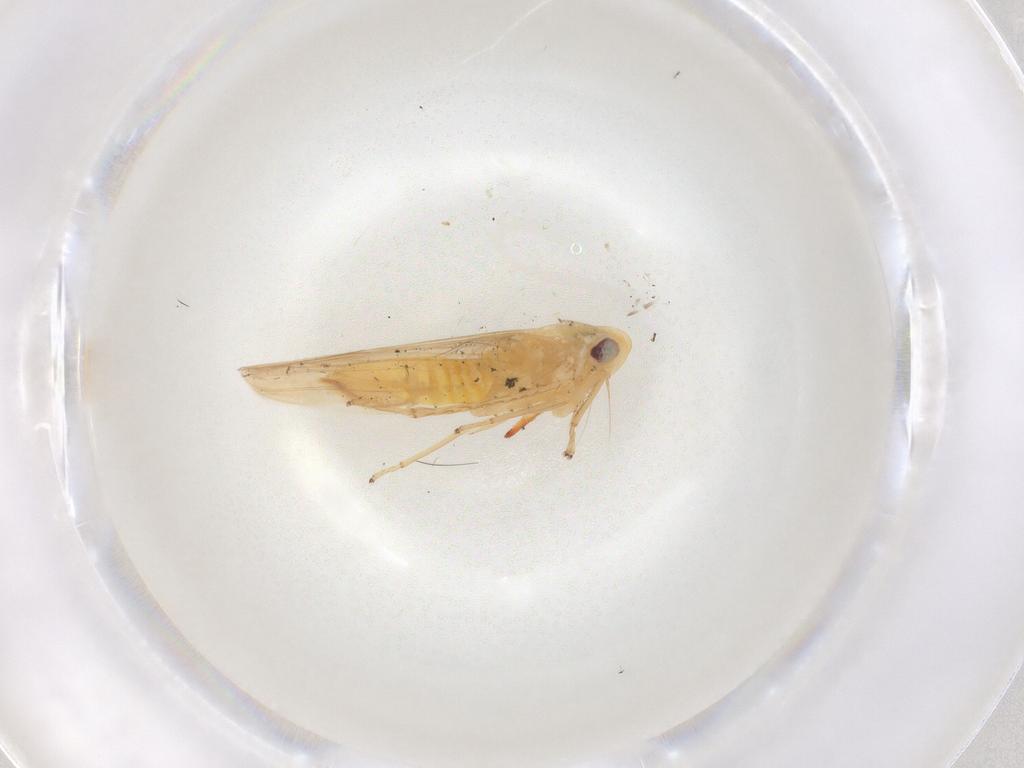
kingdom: Animalia
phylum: Arthropoda
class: Insecta
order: Hemiptera
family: Cicadellidae
